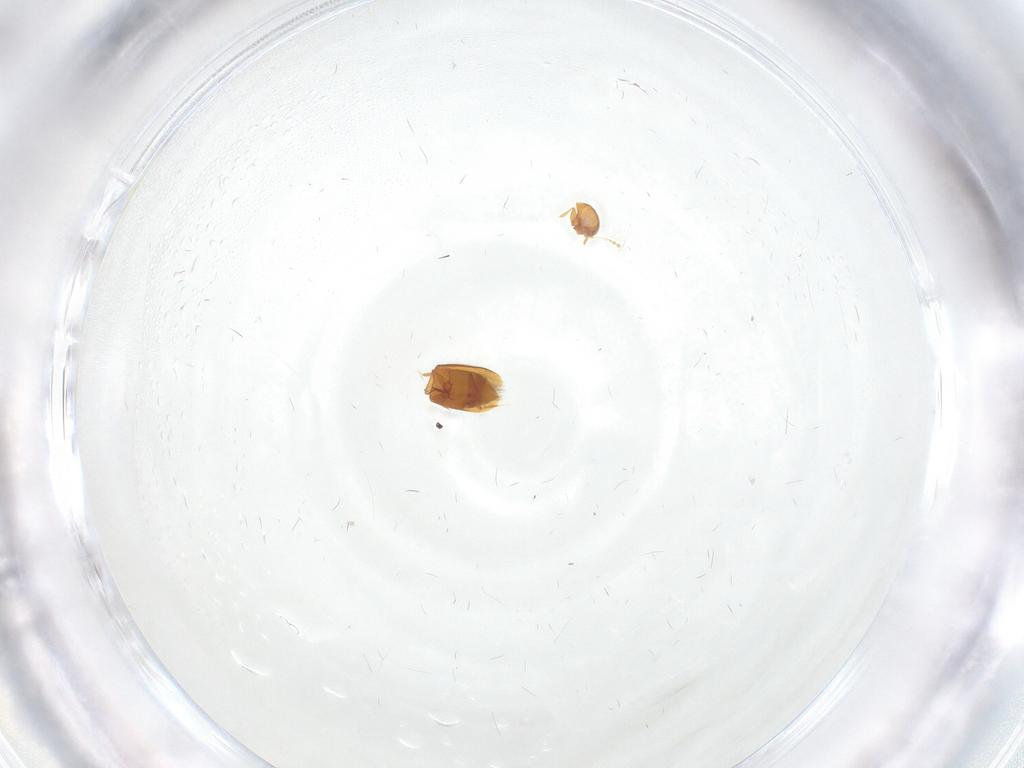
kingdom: Animalia
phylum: Arthropoda
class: Insecta
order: Coleoptera
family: Ptiliidae
